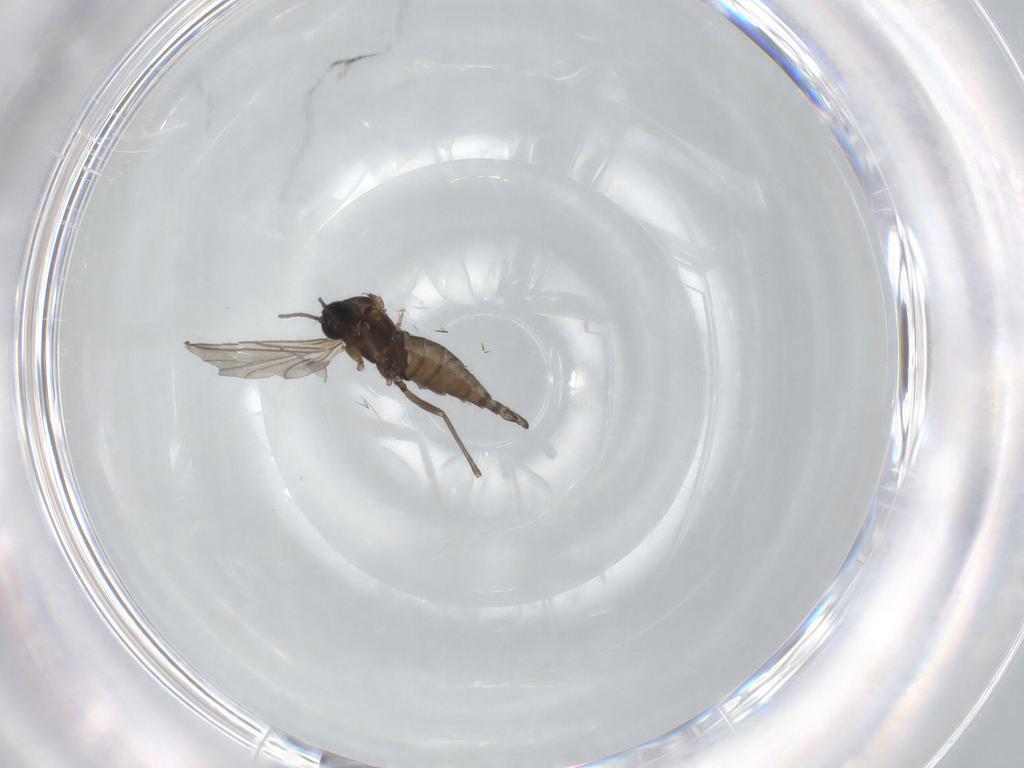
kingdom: Animalia
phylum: Arthropoda
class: Insecta
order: Diptera
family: Sciaridae
